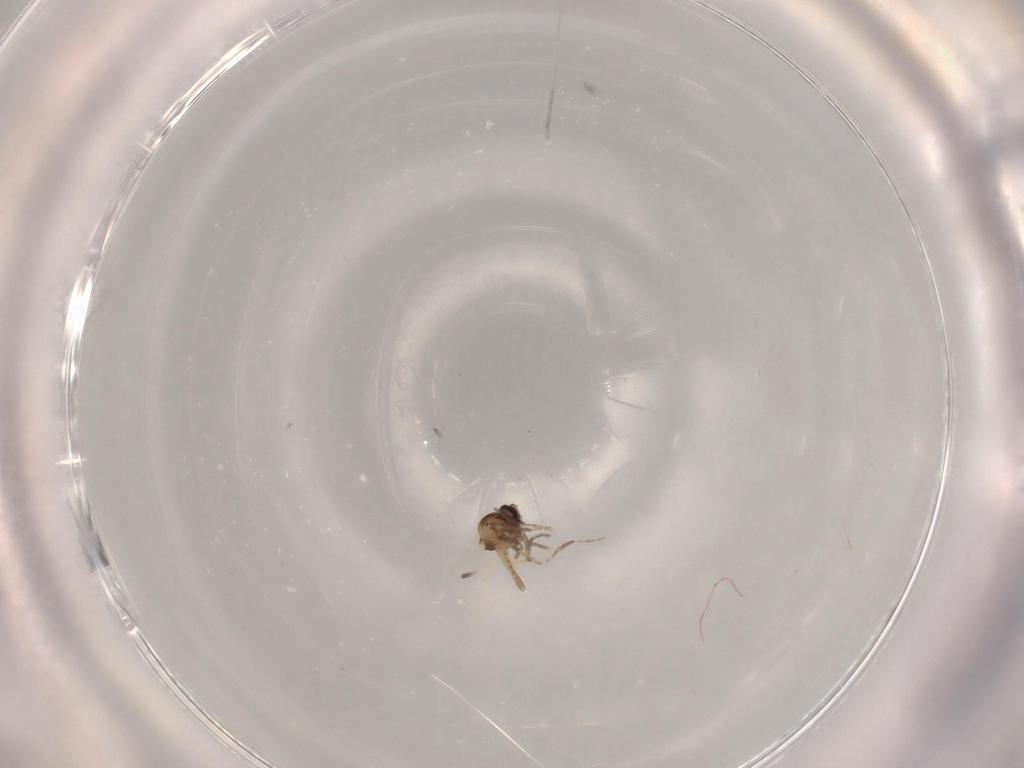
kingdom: Animalia
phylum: Arthropoda
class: Insecta
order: Diptera
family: Ceratopogonidae
